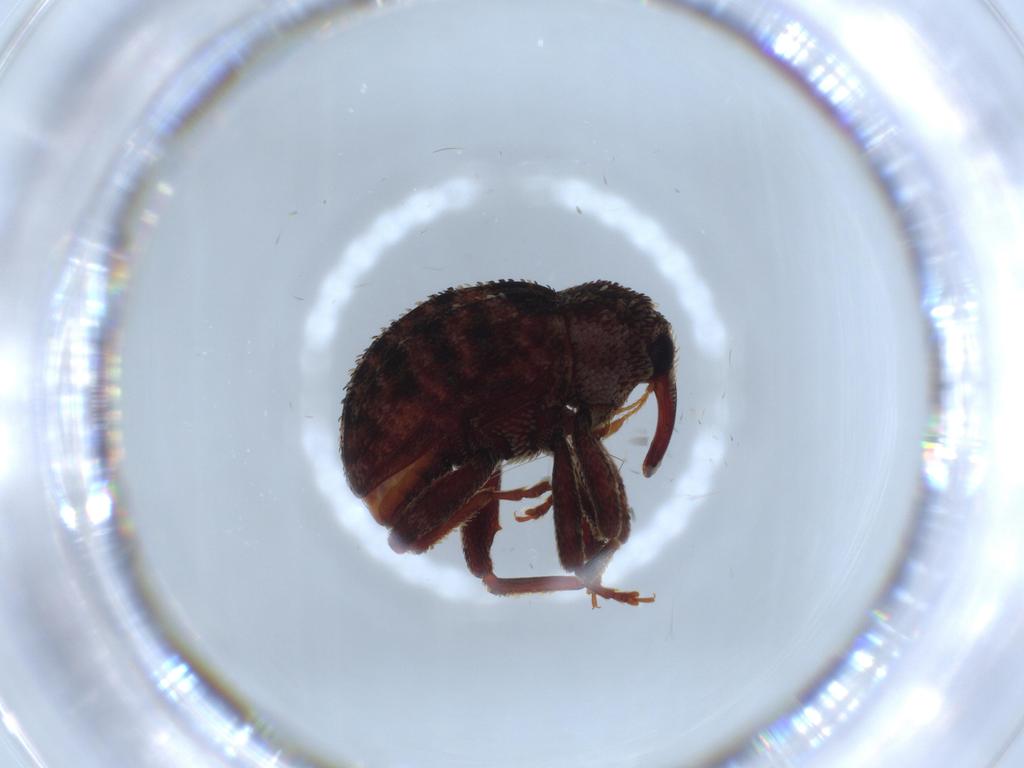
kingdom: Animalia
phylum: Arthropoda
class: Insecta
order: Coleoptera
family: Curculionidae
